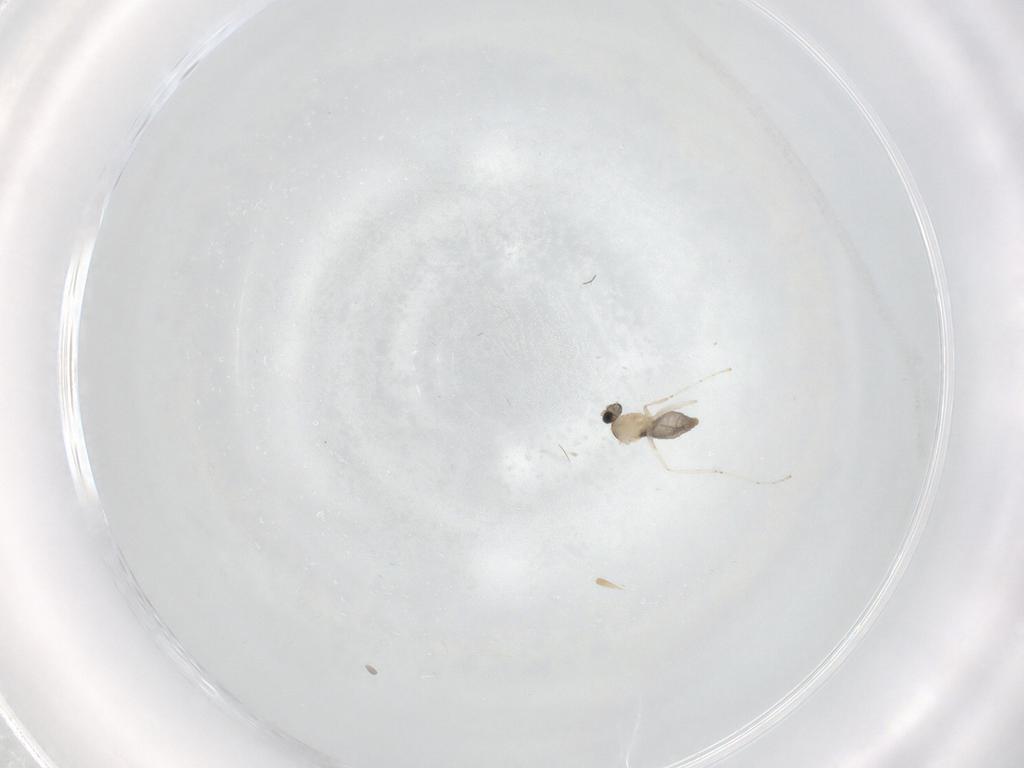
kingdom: Animalia
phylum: Arthropoda
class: Insecta
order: Diptera
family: Cecidomyiidae
